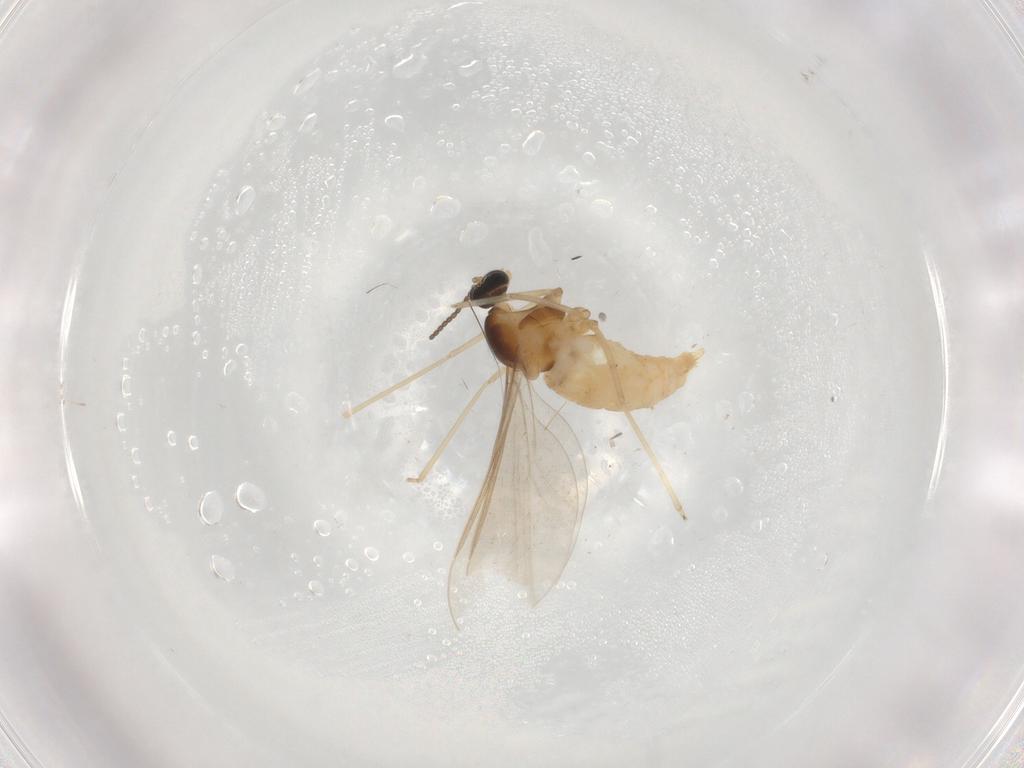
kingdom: Animalia
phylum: Arthropoda
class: Insecta
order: Diptera
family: Cecidomyiidae
